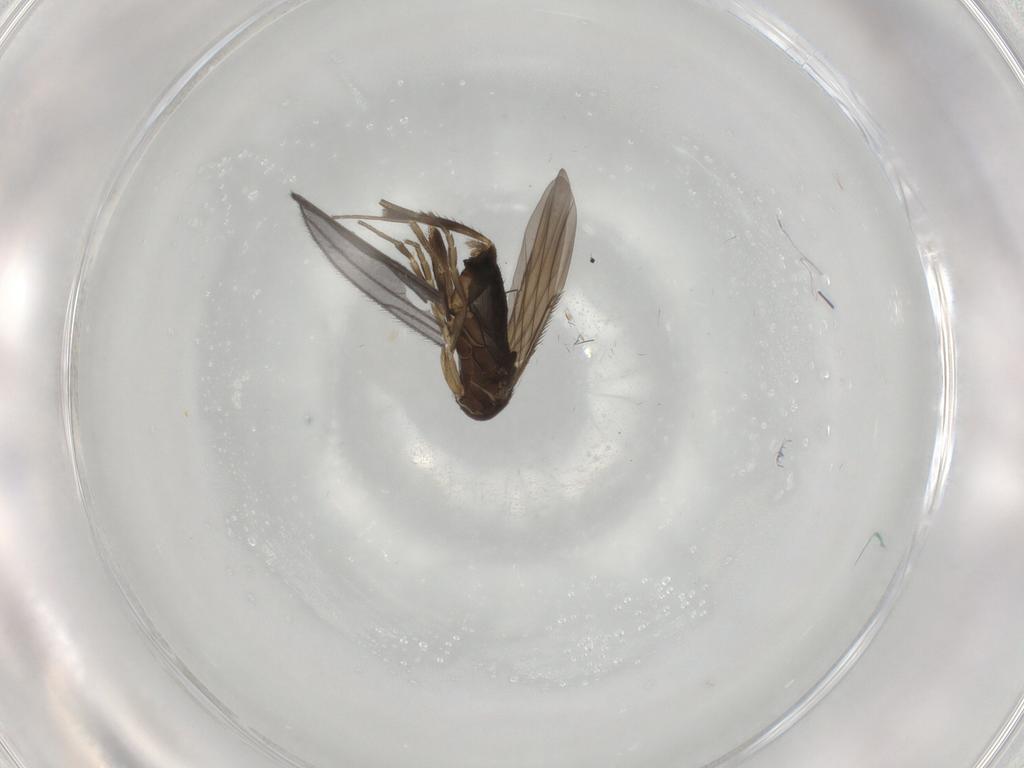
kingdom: Animalia
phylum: Arthropoda
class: Insecta
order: Diptera
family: Phoridae
